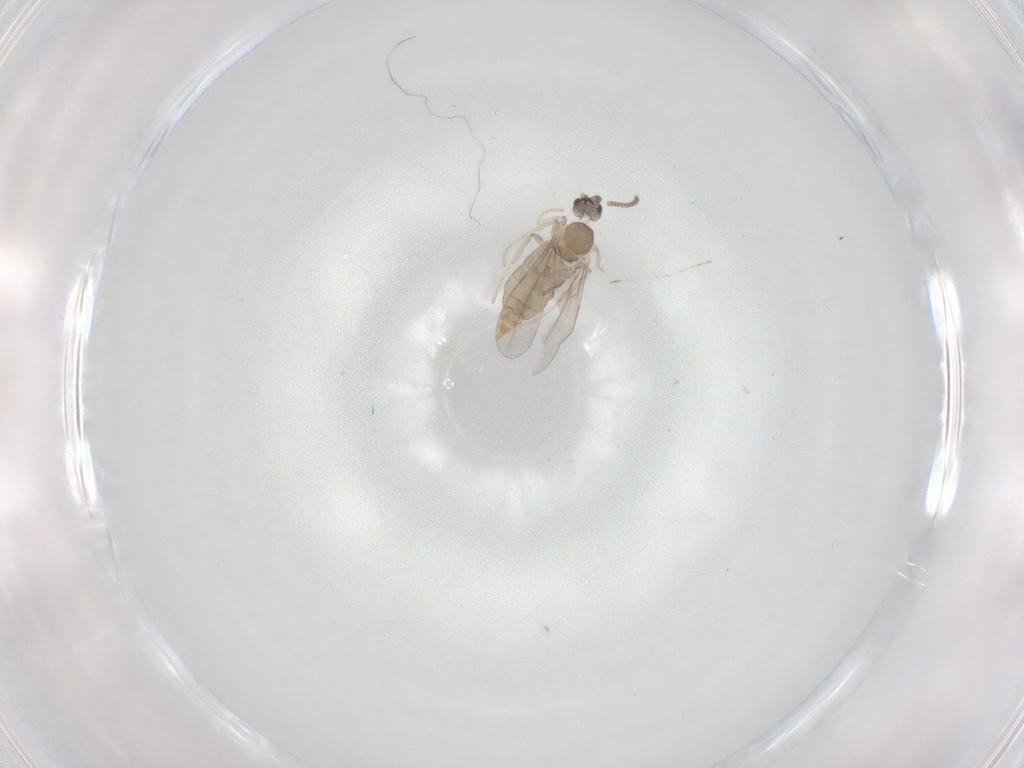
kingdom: Animalia
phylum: Arthropoda
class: Insecta
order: Diptera
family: Cecidomyiidae
